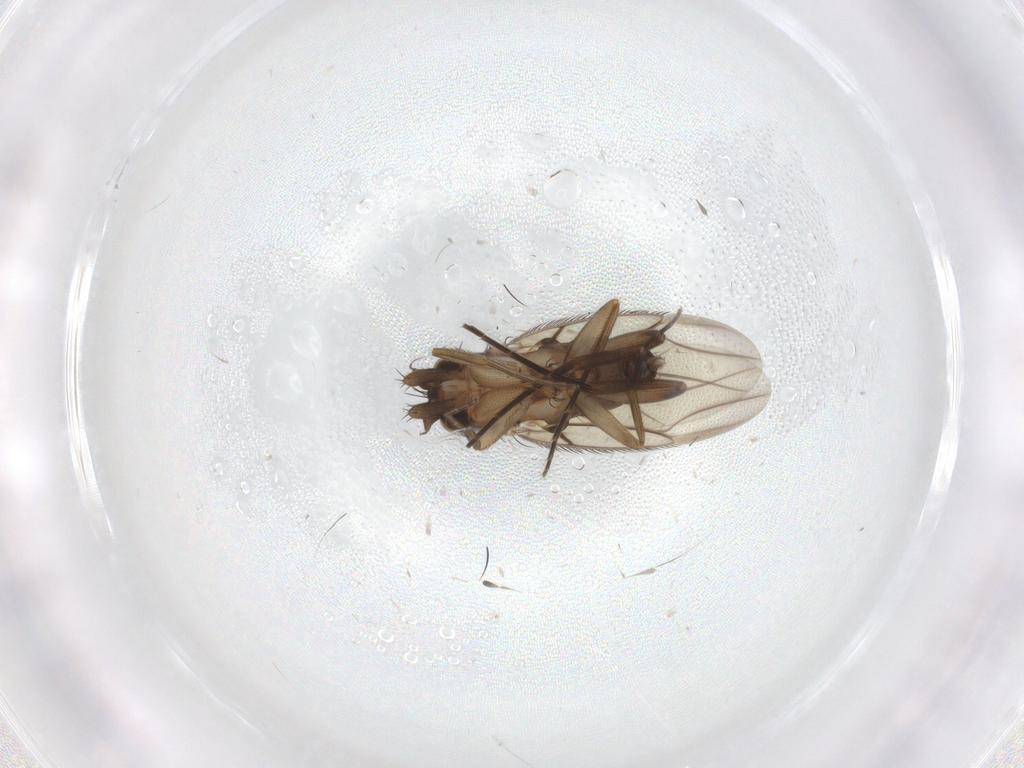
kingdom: Animalia
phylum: Arthropoda
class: Insecta
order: Diptera
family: Phoridae
